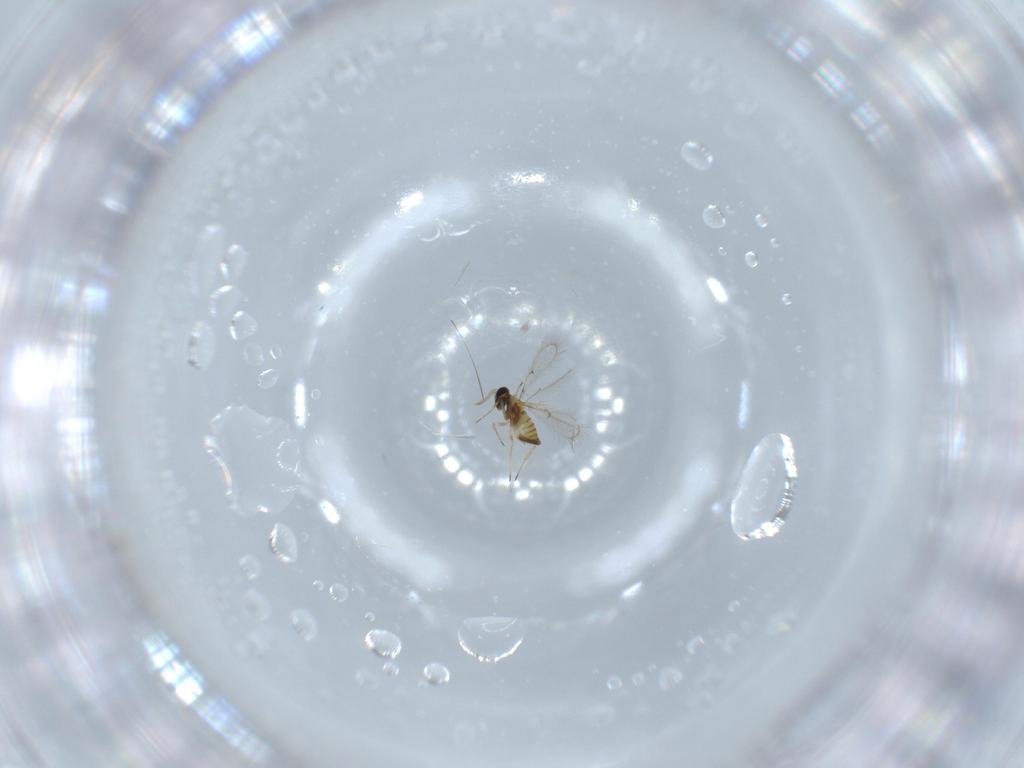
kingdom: Animalia
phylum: Arthropoda
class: Insecta
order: Hymenoptera
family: Trichogrammatidae
